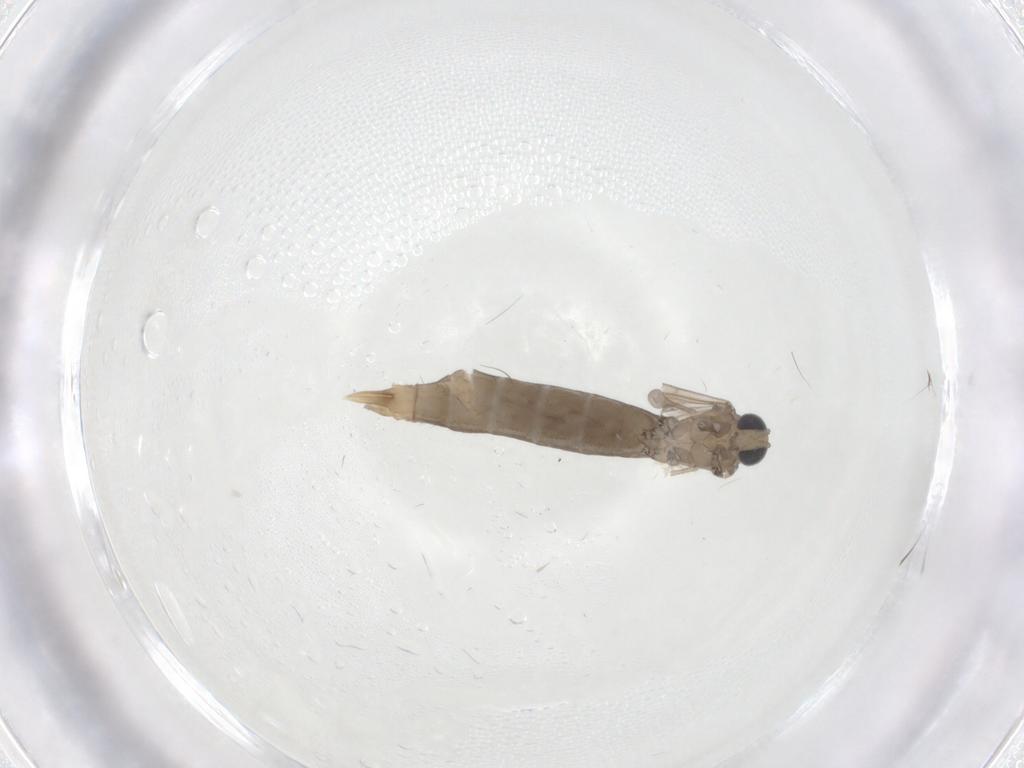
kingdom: Animalia
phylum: Arthropoda
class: Insecta
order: Diptera
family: Limoniidae
